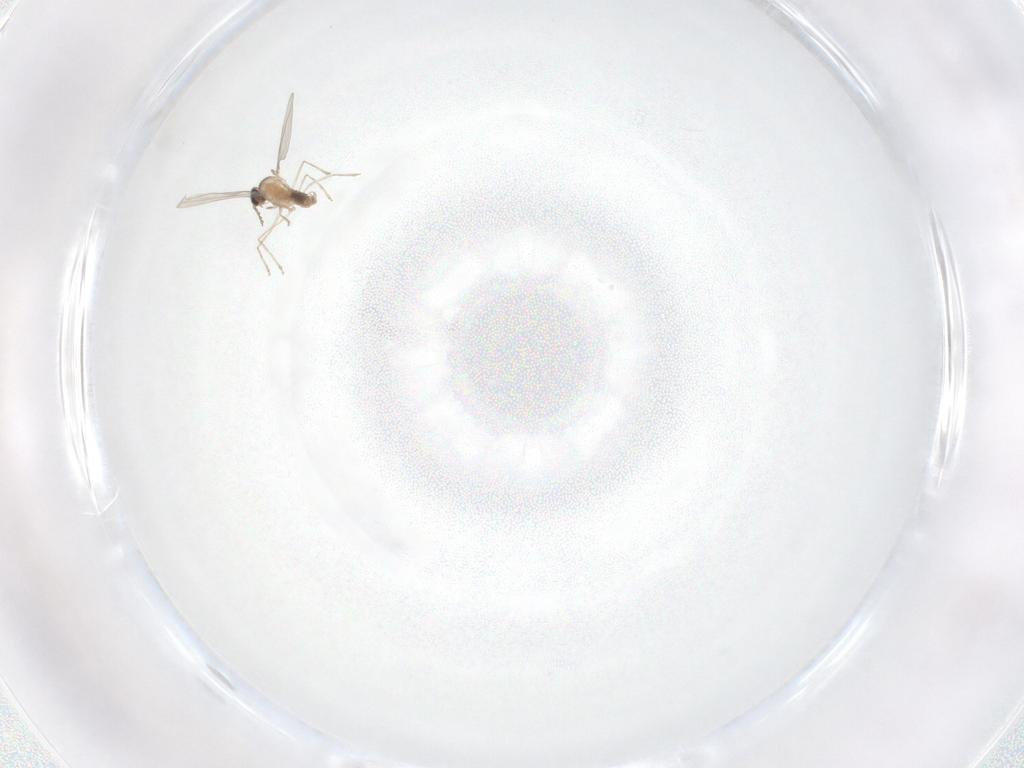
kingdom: Animalia
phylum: Arthropoda
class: Insecta
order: Diptera
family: Cecidomyiidae
